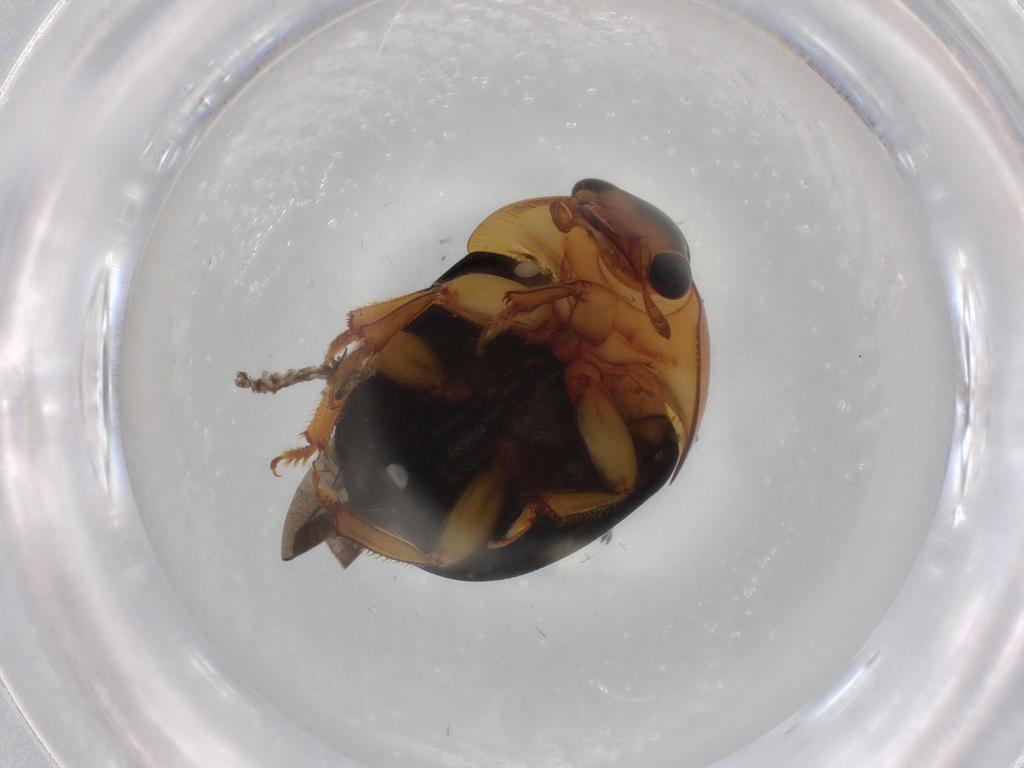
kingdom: Animalia
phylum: Arthropoda
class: Insecta
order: Coleoptera
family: Nitidulidae
